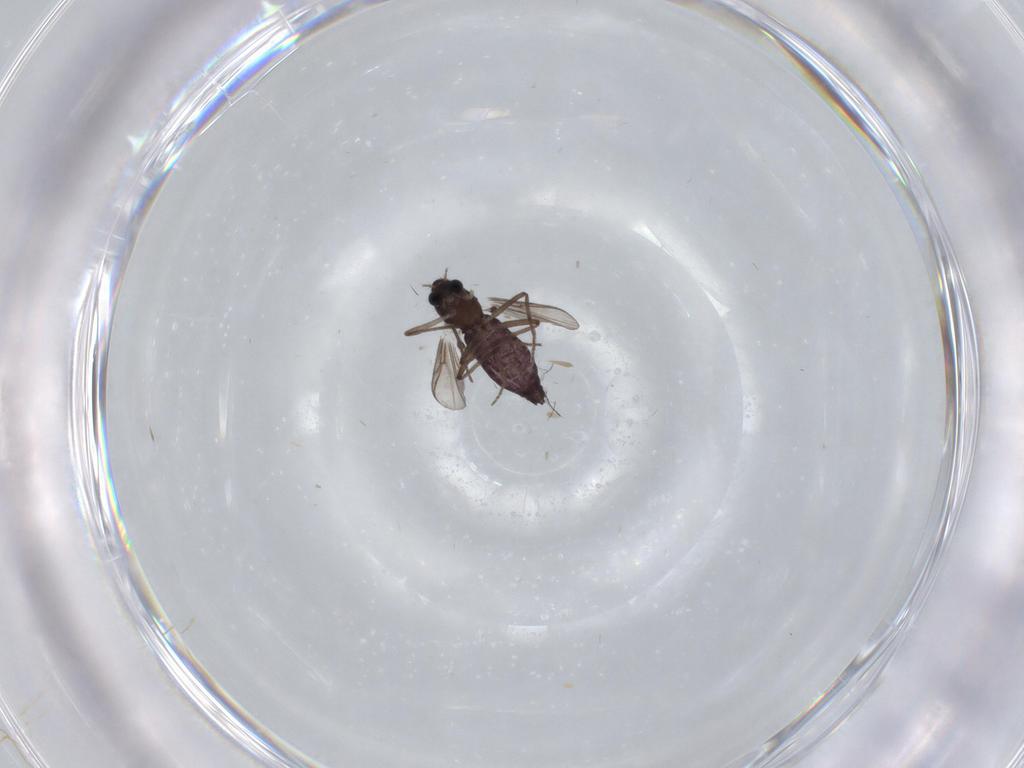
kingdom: Animalia
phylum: Arthropoda
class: Insecta
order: Diptera
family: Chironomidae
